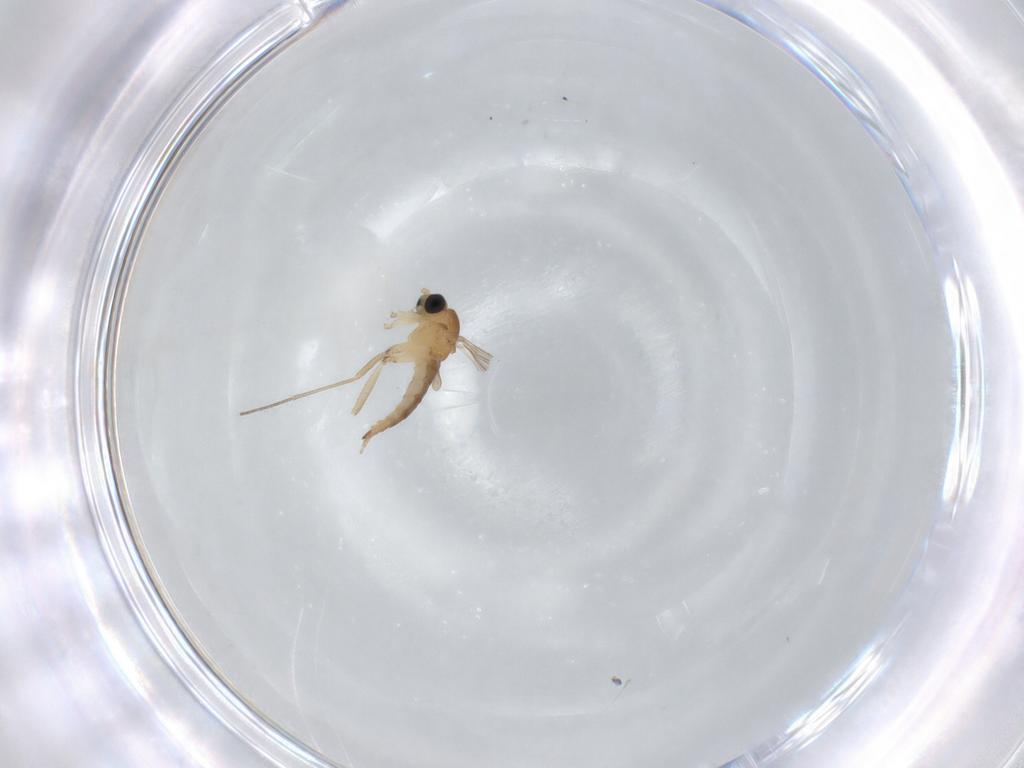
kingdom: Animalia
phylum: Arthropoda
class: Insecta
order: Diptera
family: Sciaridae
